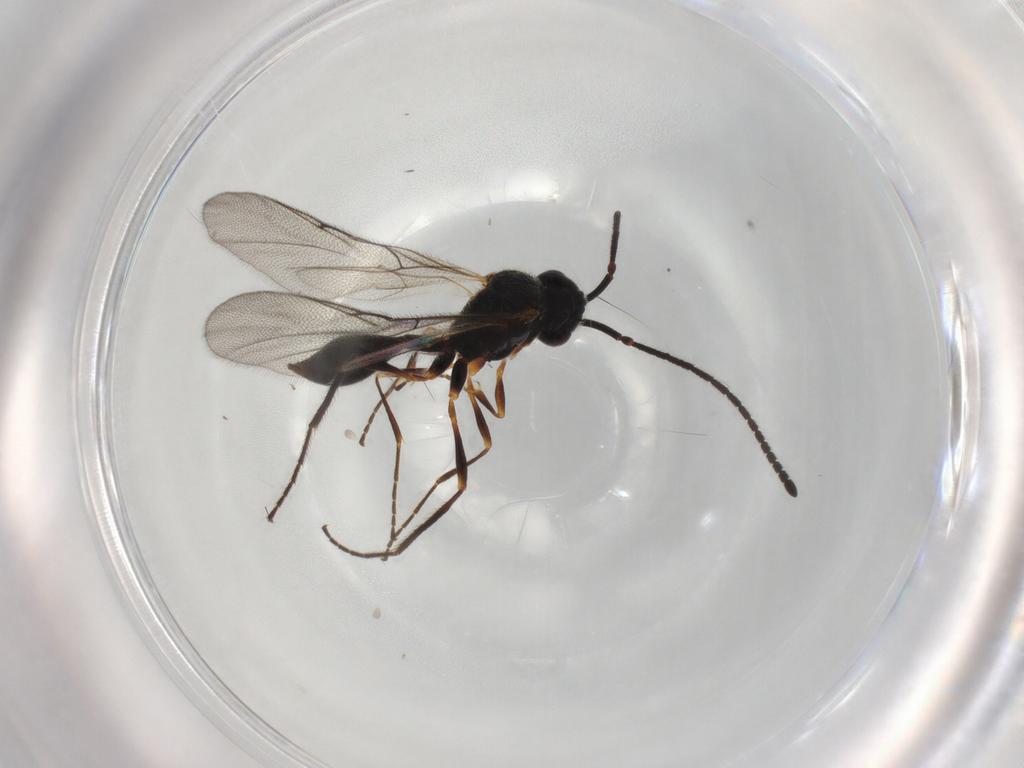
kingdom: Animalia
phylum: Arthropoda
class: Insecta
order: Hymenoptera
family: Diapriidae
